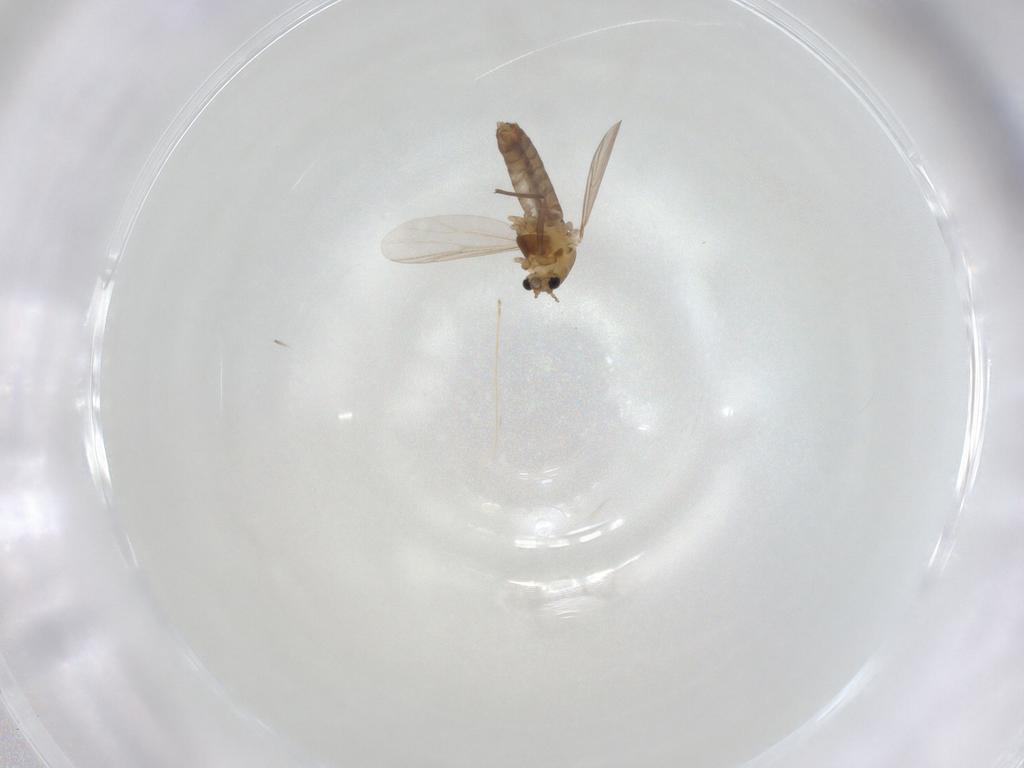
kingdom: Animalia
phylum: Arthropoda
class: Insecta
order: Diptera
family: Chironomidae
